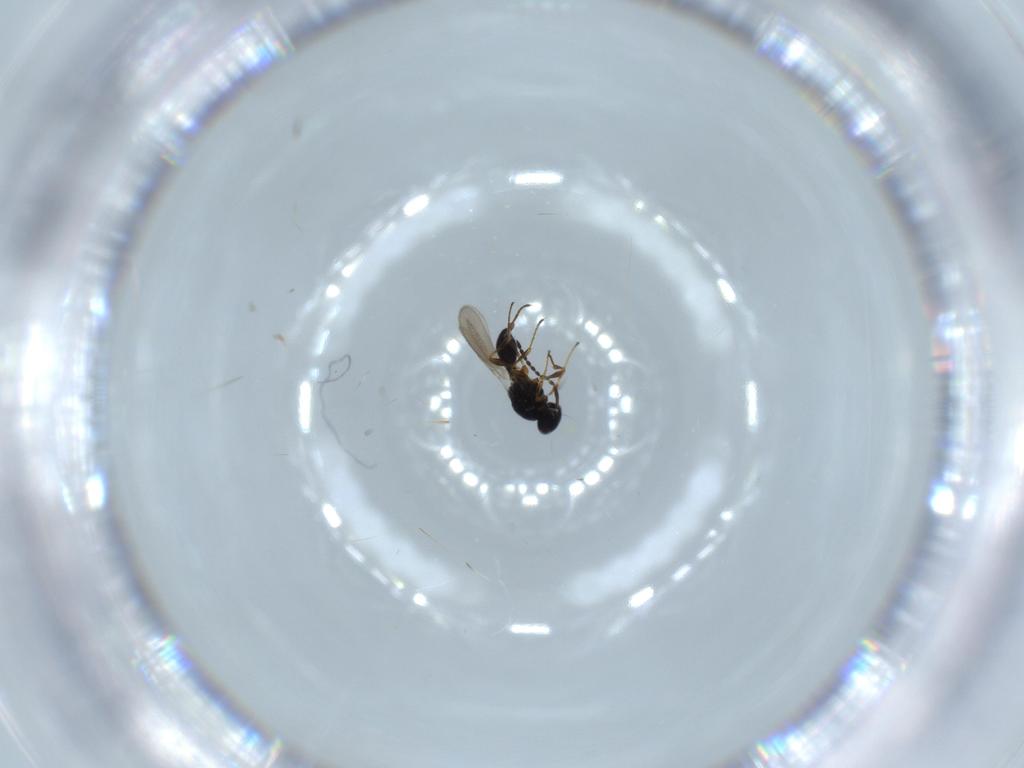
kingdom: Animalia
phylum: Arthropoda
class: Insecta
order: Hymenoptera
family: Platygastridae
